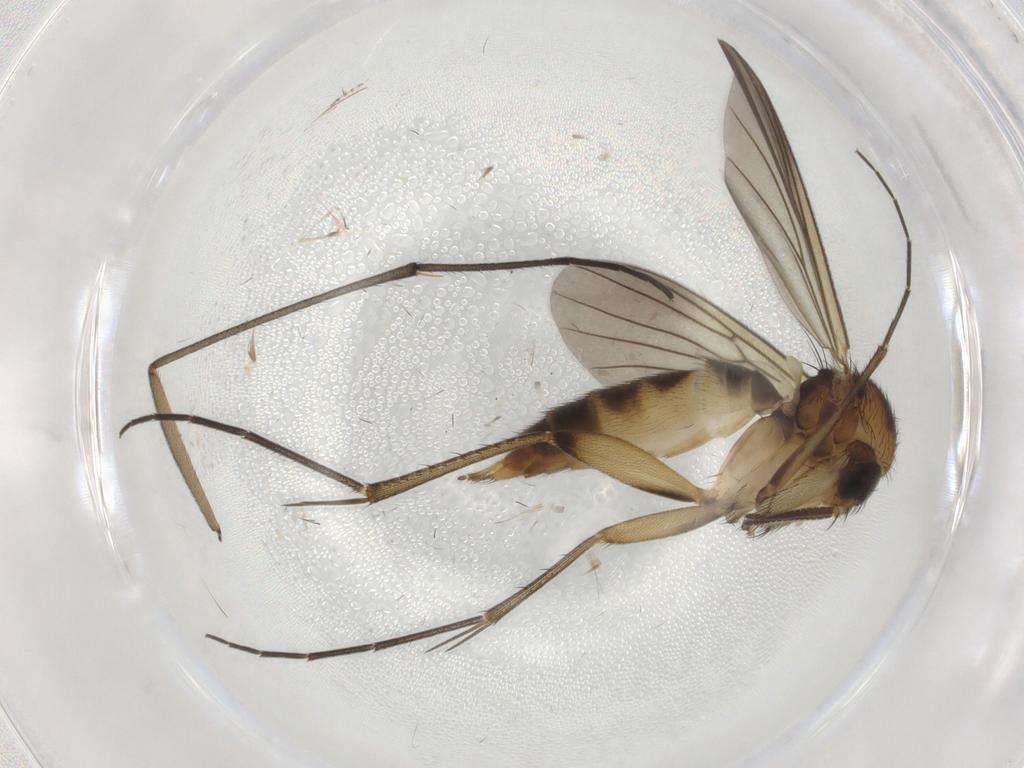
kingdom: Animalia
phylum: Arthropoda
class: Insecta
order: Diptera
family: Sciaridae
